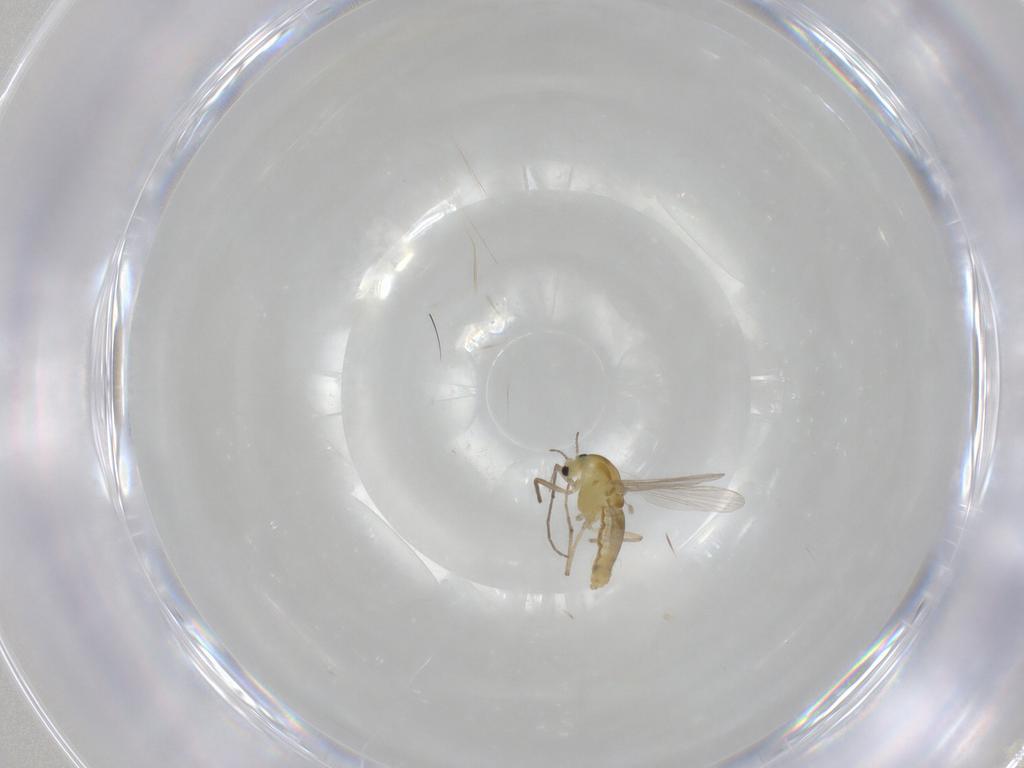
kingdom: Animalia
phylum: Arthropoda
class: Insecta
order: Diptera
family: Chironomidae
